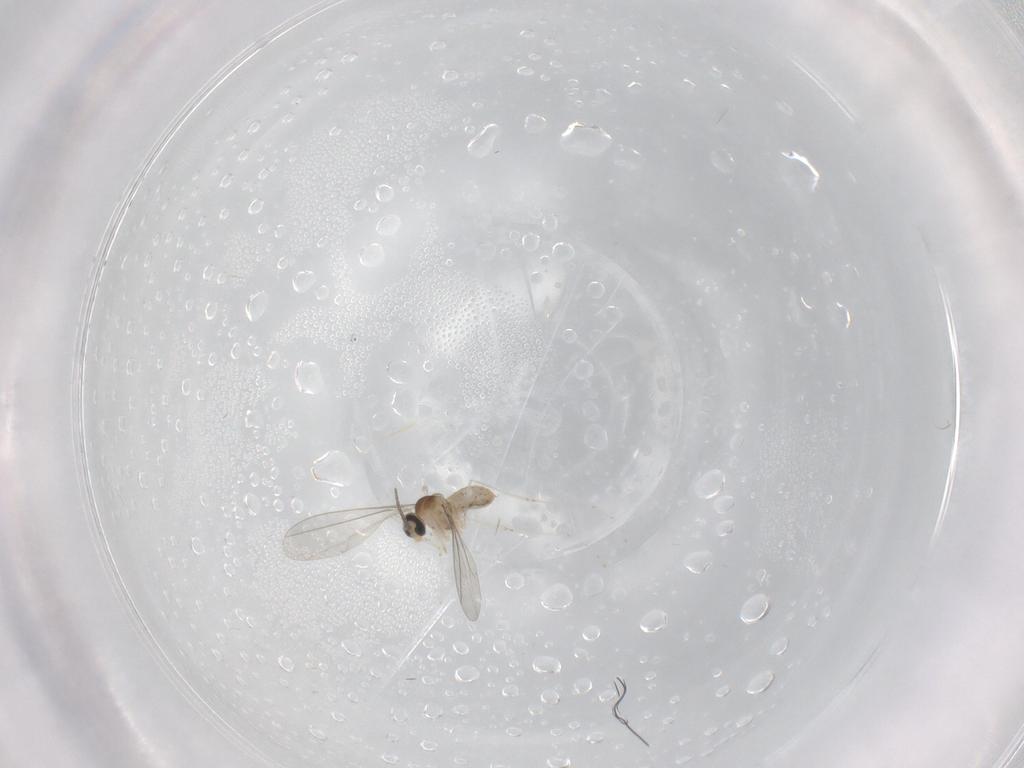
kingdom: Animalia
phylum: Arthropoda
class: Insecta
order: Diptera
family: Cecidomyiidae
